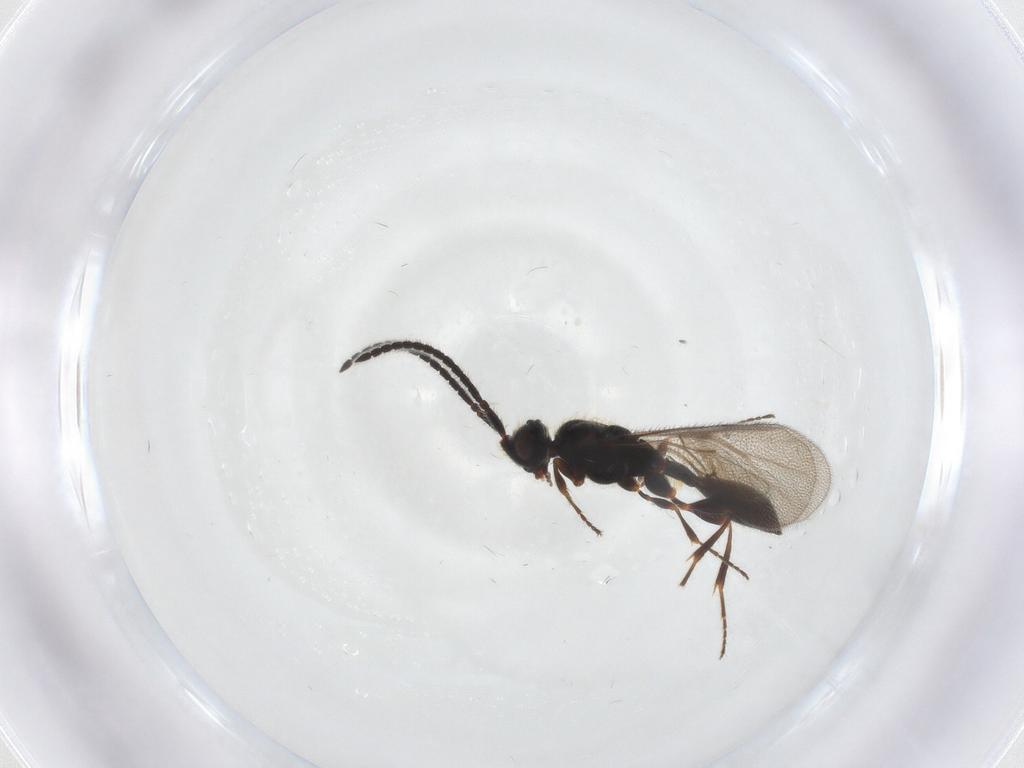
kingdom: Animalia
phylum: Arthropoda
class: Insecta
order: Hymenoptera
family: Diapriidae
